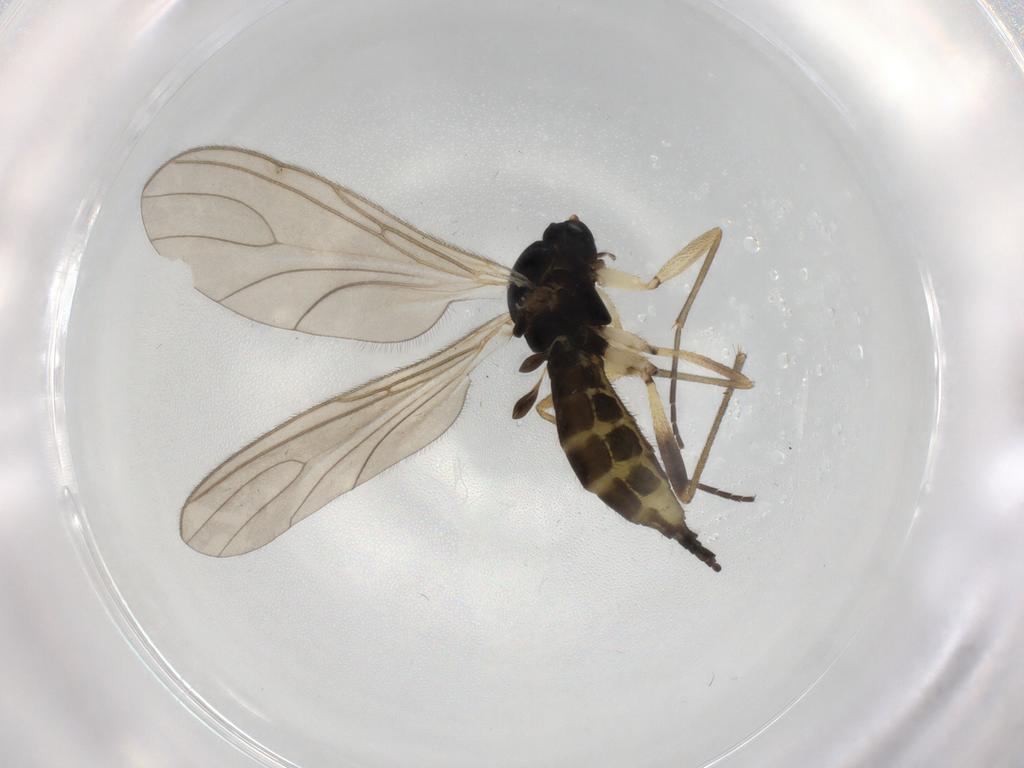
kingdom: Animalia
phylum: Arthropoda
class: Insecta
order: Diptera
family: Sciaridae
